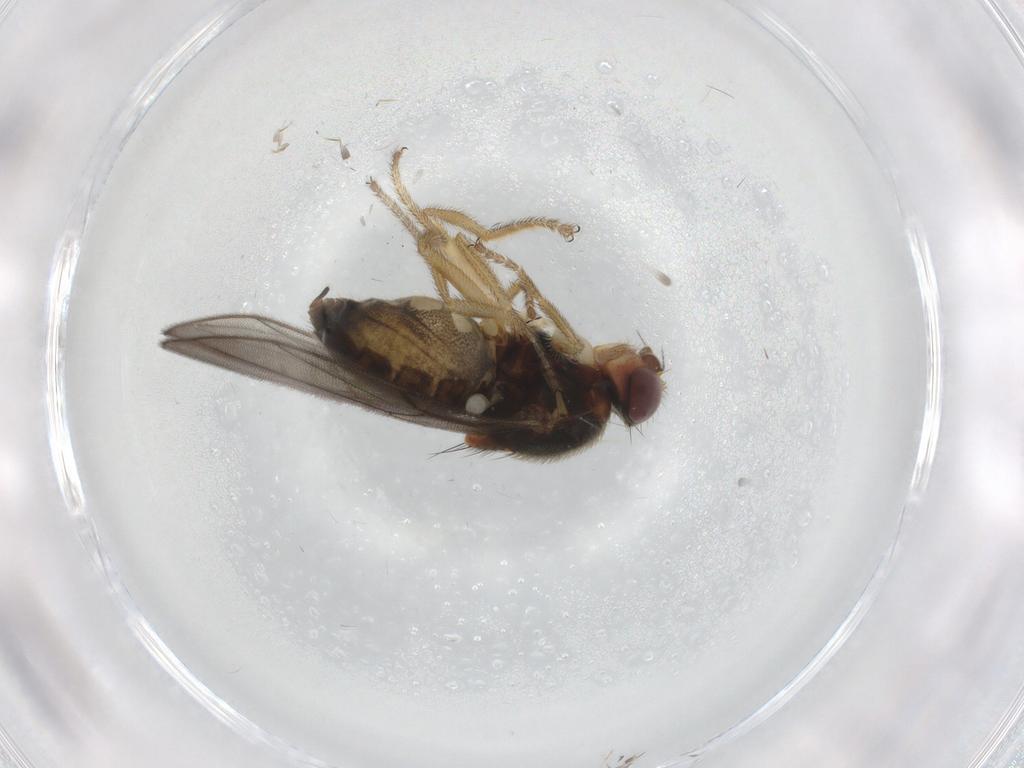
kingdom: Animalia
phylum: Arthropoda
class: Insecta
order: Diptera
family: Chloropidae
